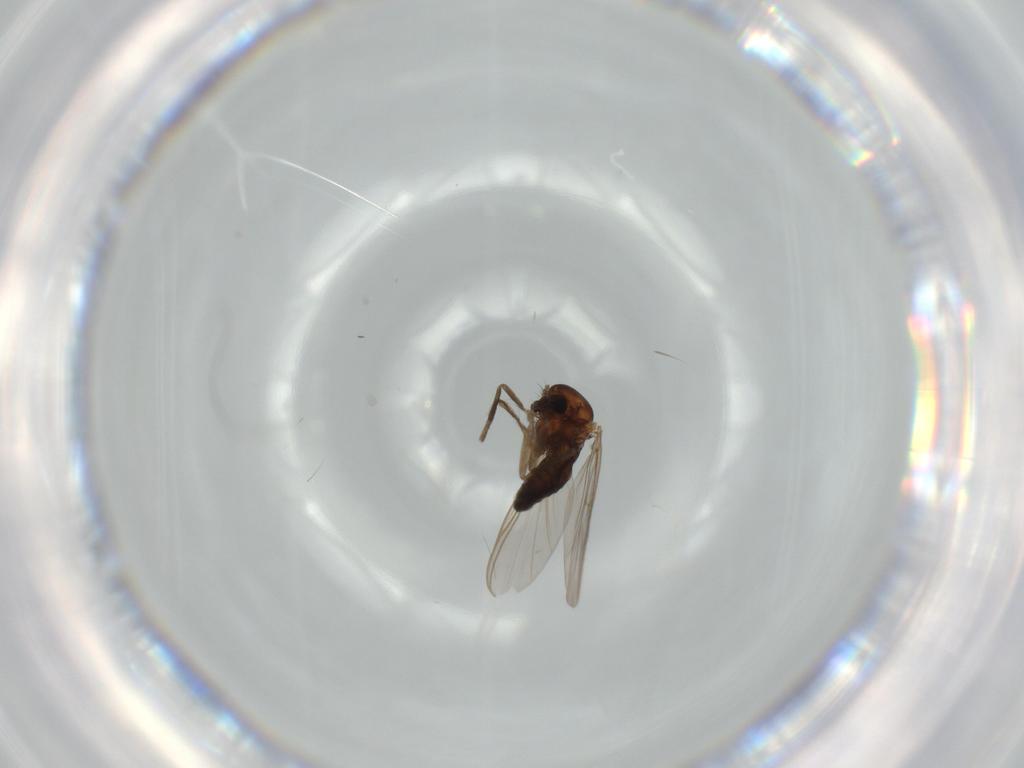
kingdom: Animalia
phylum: Arthropoda
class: Insecta
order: Diptera
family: Chironomidae
